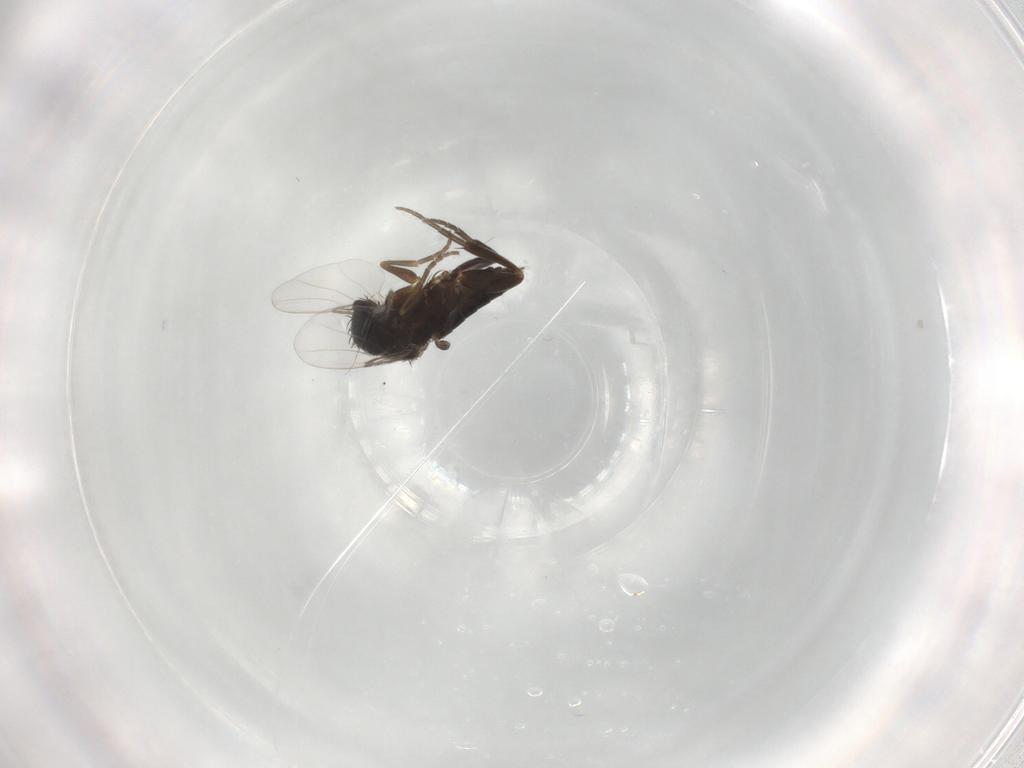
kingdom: Animalia
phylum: Arthropoda
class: Insecta
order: Diptera
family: Phoridae
